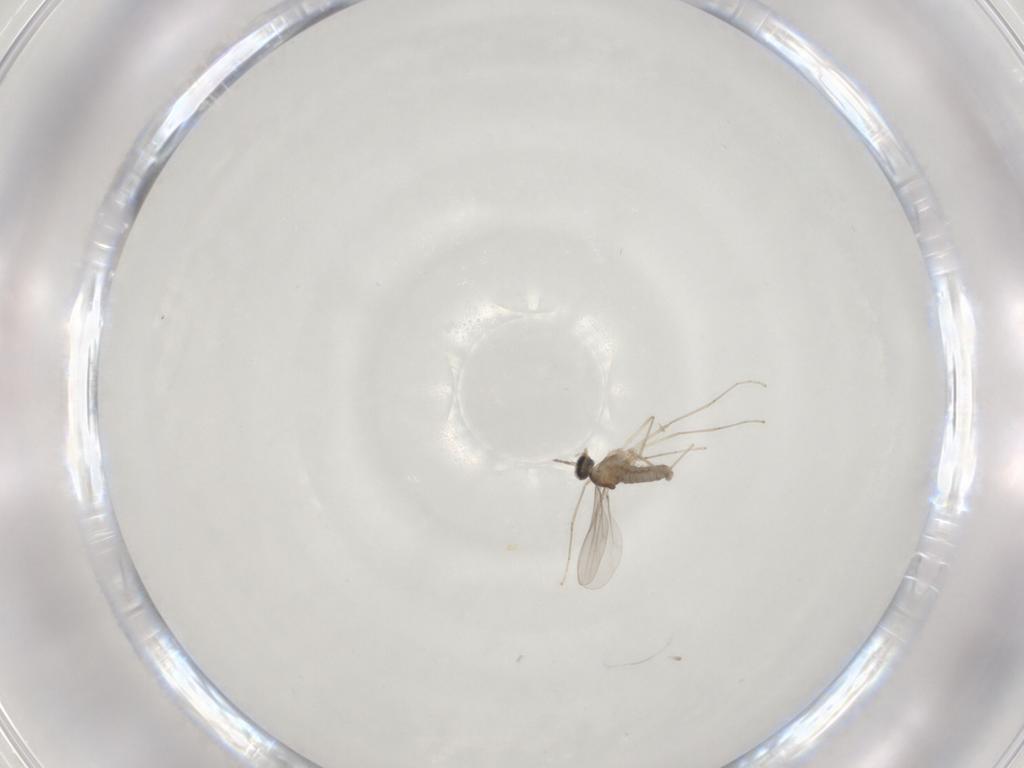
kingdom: Animalia
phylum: Arthropoda
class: Insecta
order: Diptera
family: Cecidomyiidae
